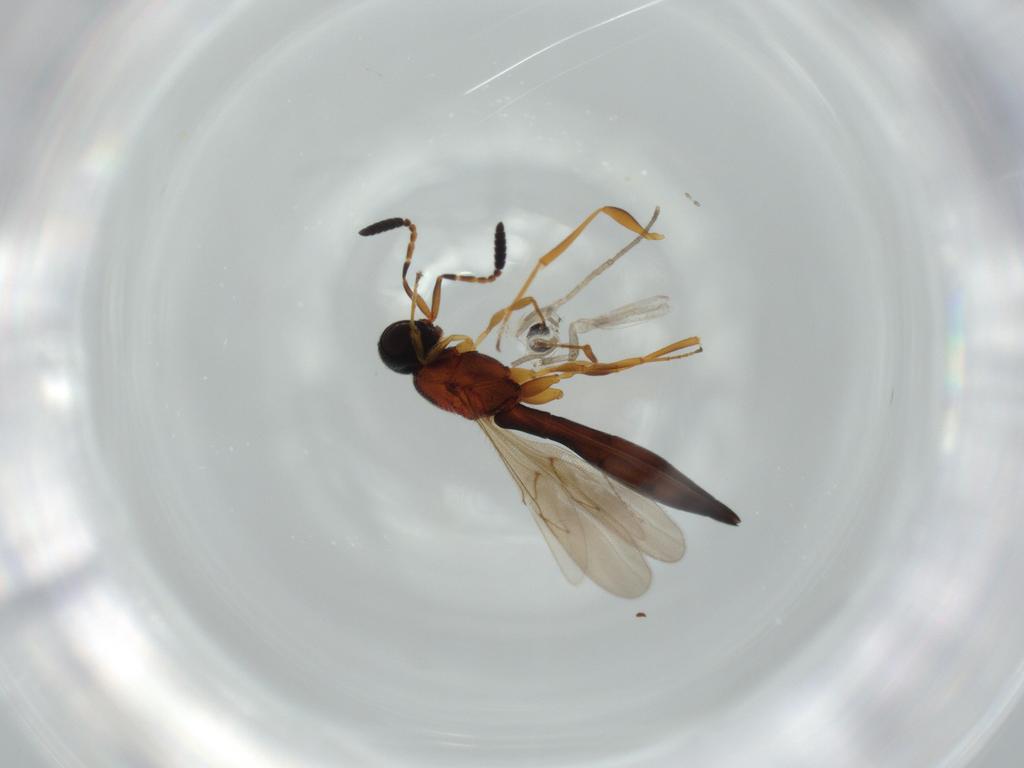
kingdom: Animalia
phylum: Arthropoda
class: Insecta
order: Hymenoptera
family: Scelionidae
